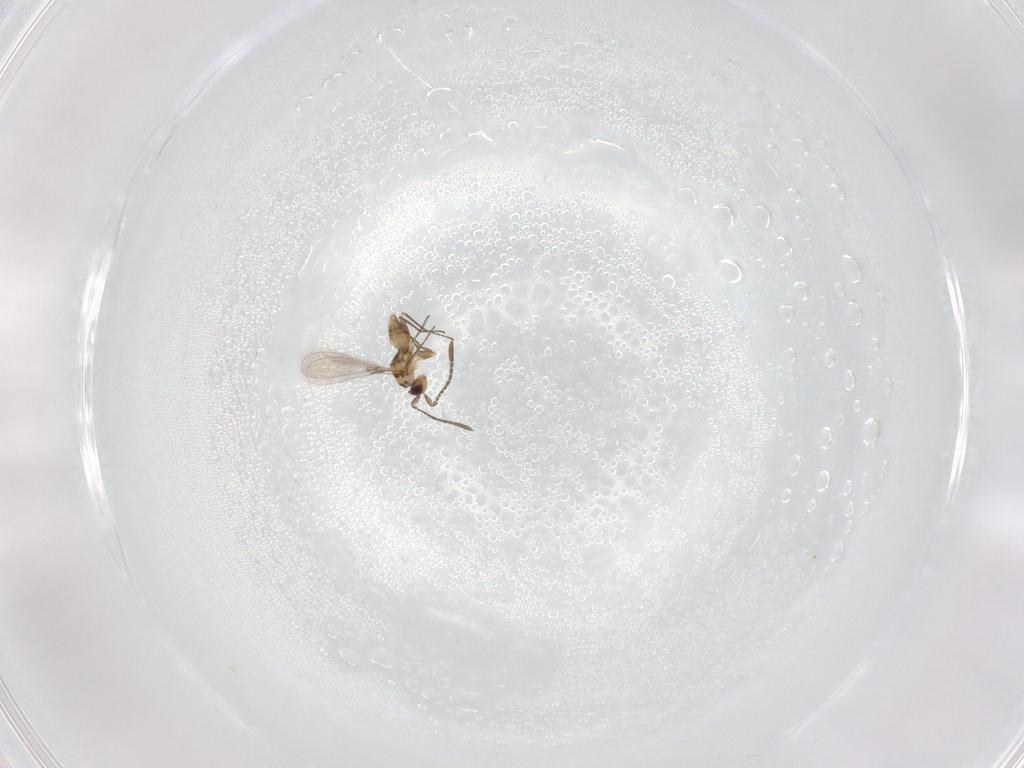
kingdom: Animalia
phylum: Arthropoda
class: Insecta
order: Hymenoptera
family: Mymaridae
